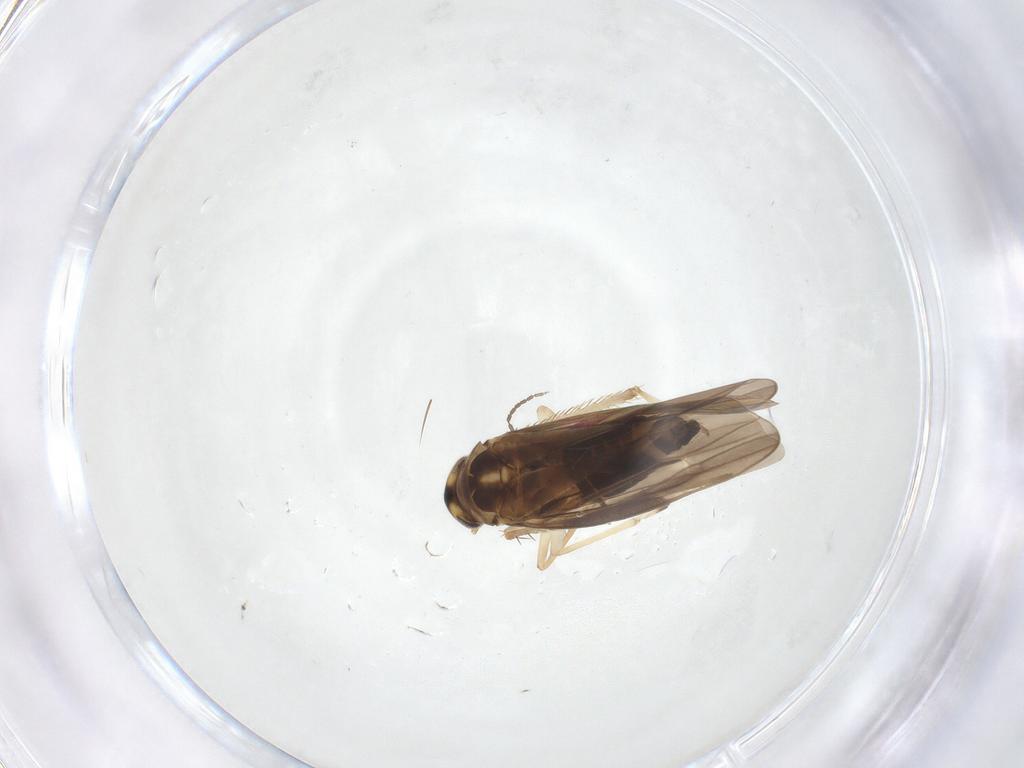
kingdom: Animalia
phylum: Arthropoda
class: Insecta
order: Hemiptera
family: Cicadellidae
